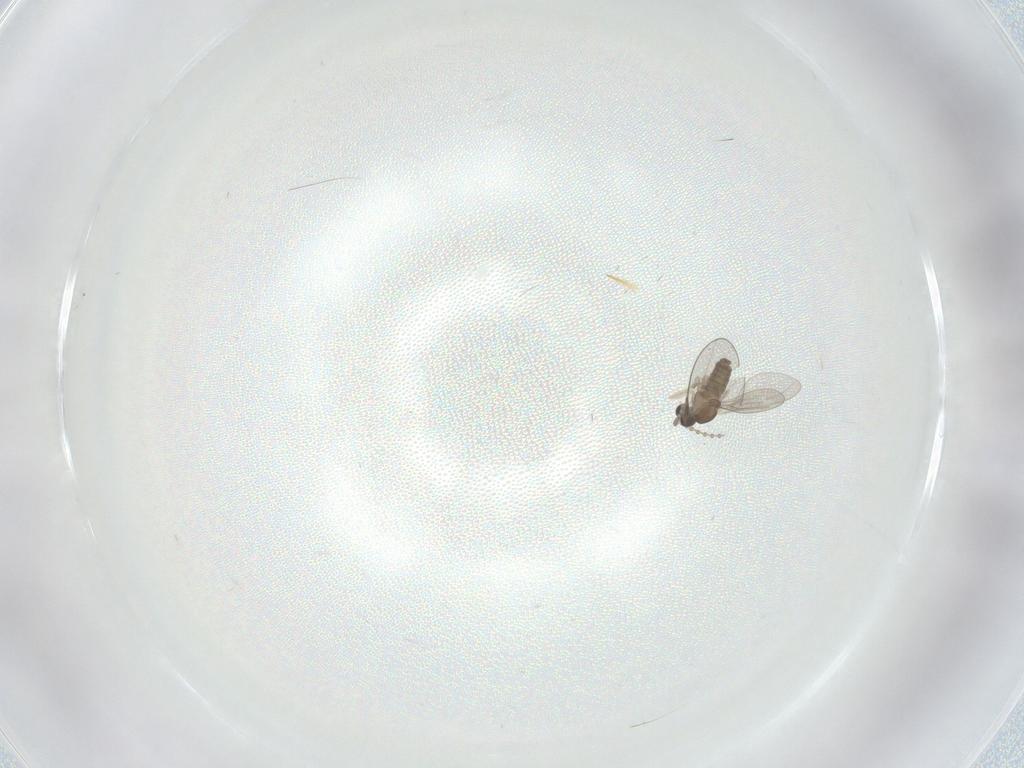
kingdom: Animalia
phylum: Arthropoda
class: Insecta
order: Diptera
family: Cecidomyiidae
